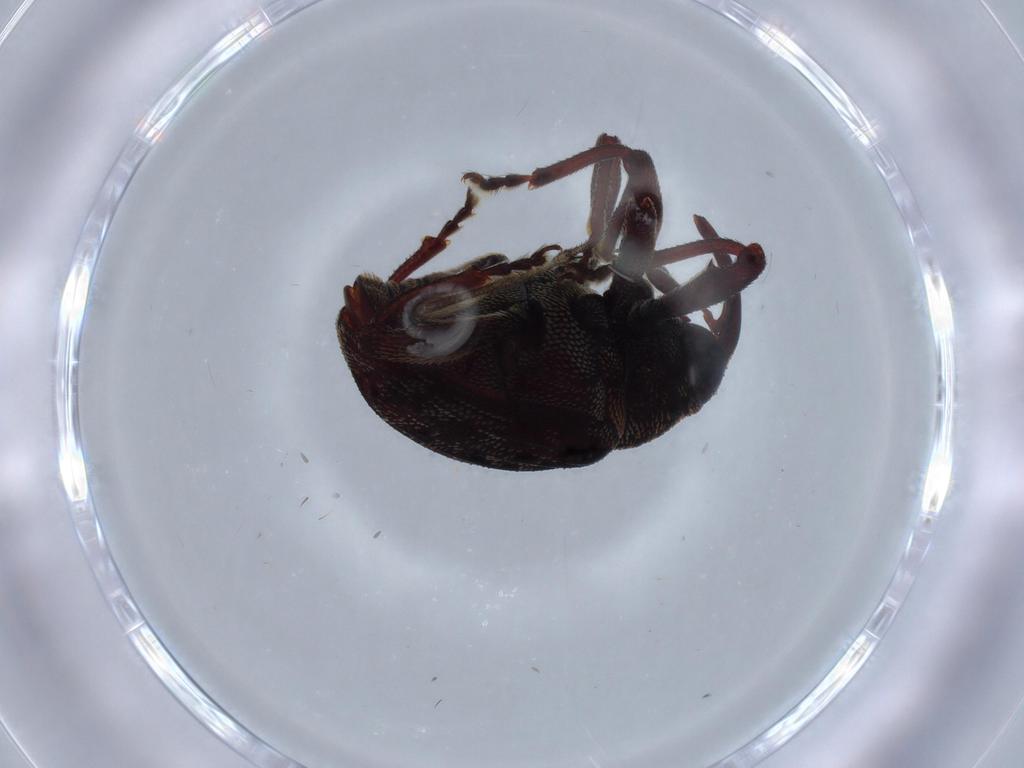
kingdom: Animalia
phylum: Arthropoda
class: Insecta
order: Coleoptera
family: Curculionidae
